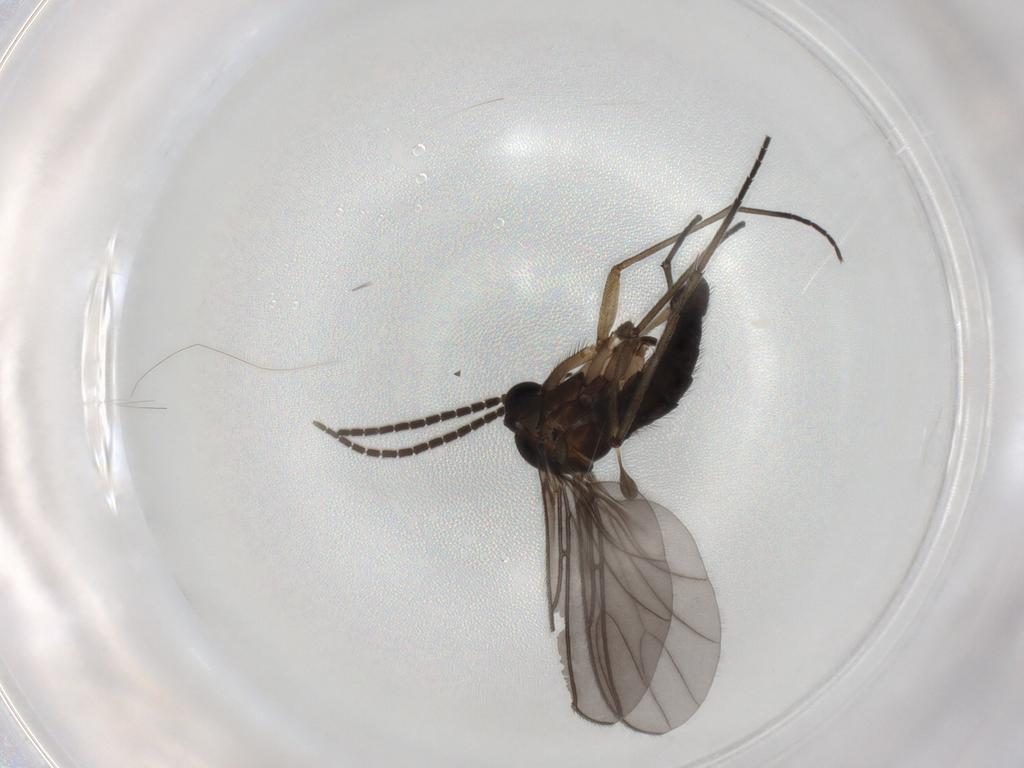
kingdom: Animalia
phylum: Arthropoda
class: Insecta
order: Diptera
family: Sciaridae
